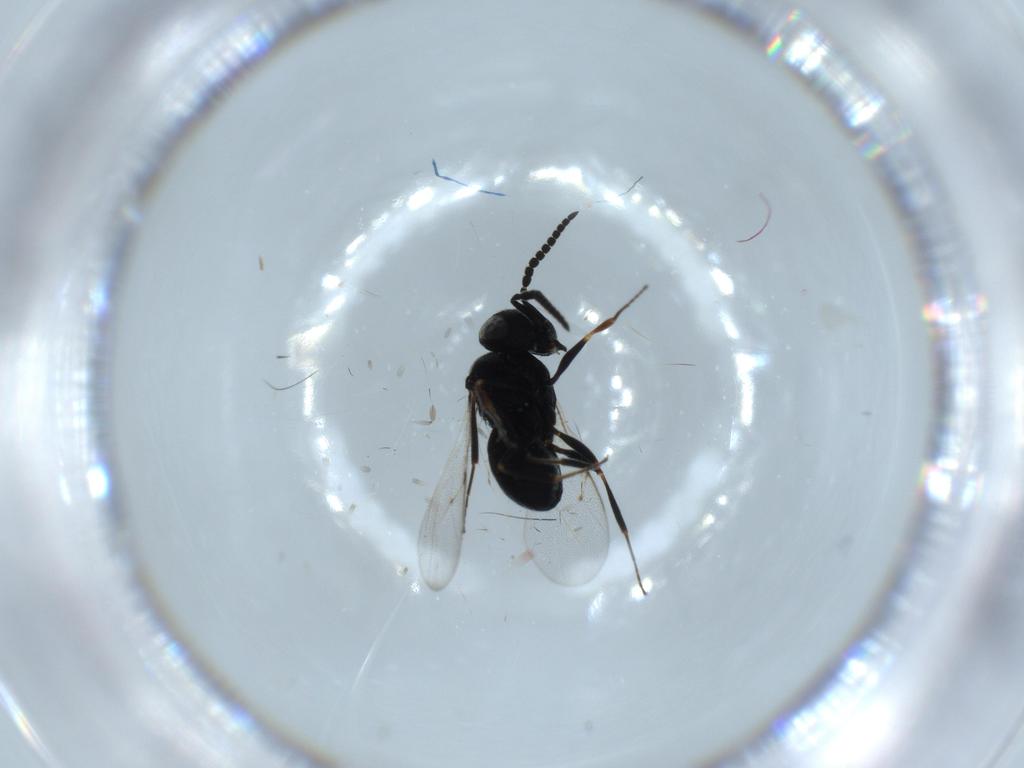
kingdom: Animalia
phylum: Arthropoda
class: Insecta
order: Hymenoptera
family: Scelionidae
